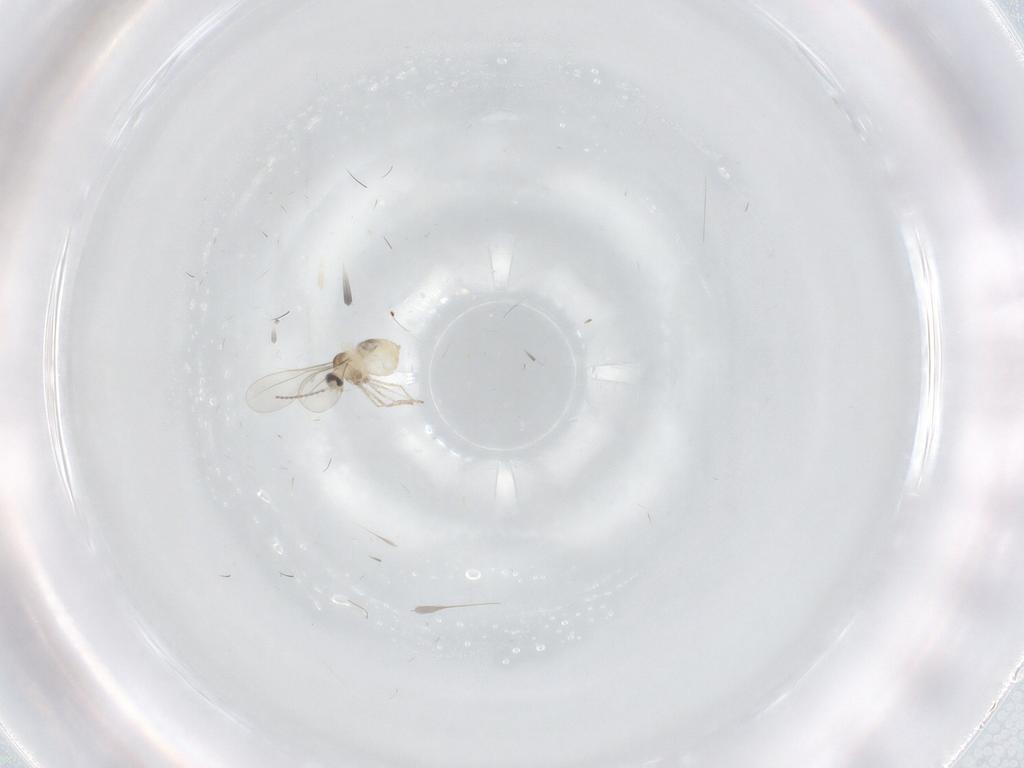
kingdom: Animalia
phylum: Arthropoda
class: Insecta
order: Diptera
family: Cecidomyiidae
